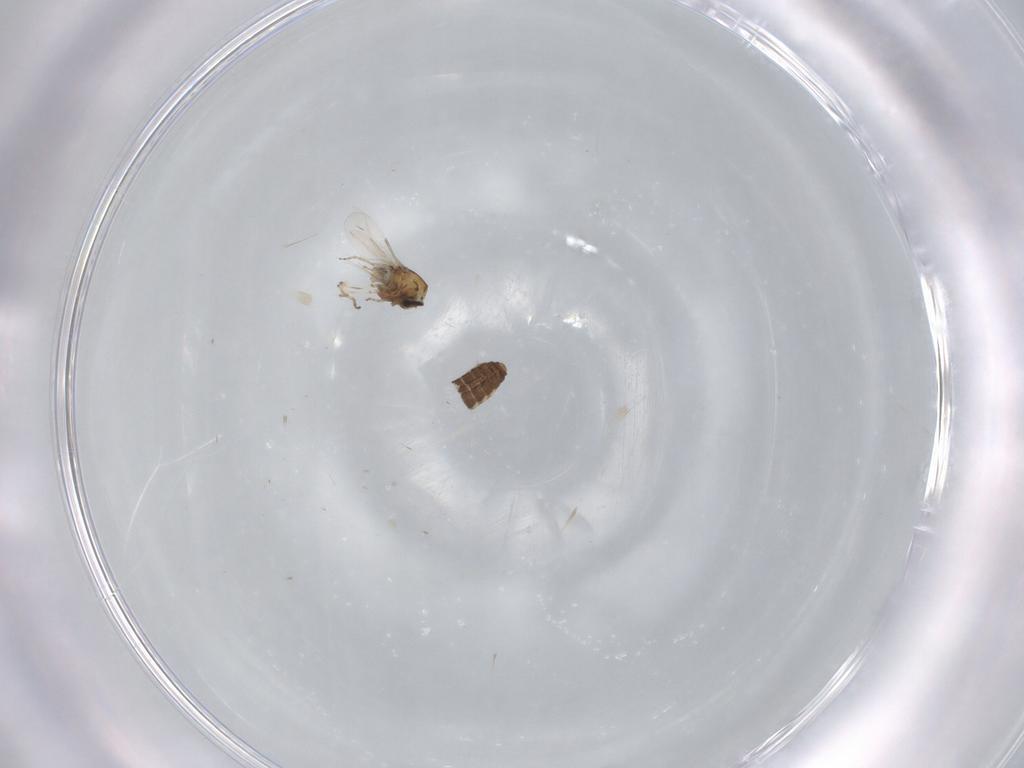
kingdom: Animalia
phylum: Arthropoda
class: Insecta
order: Diptera
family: Ceratopogonidae
